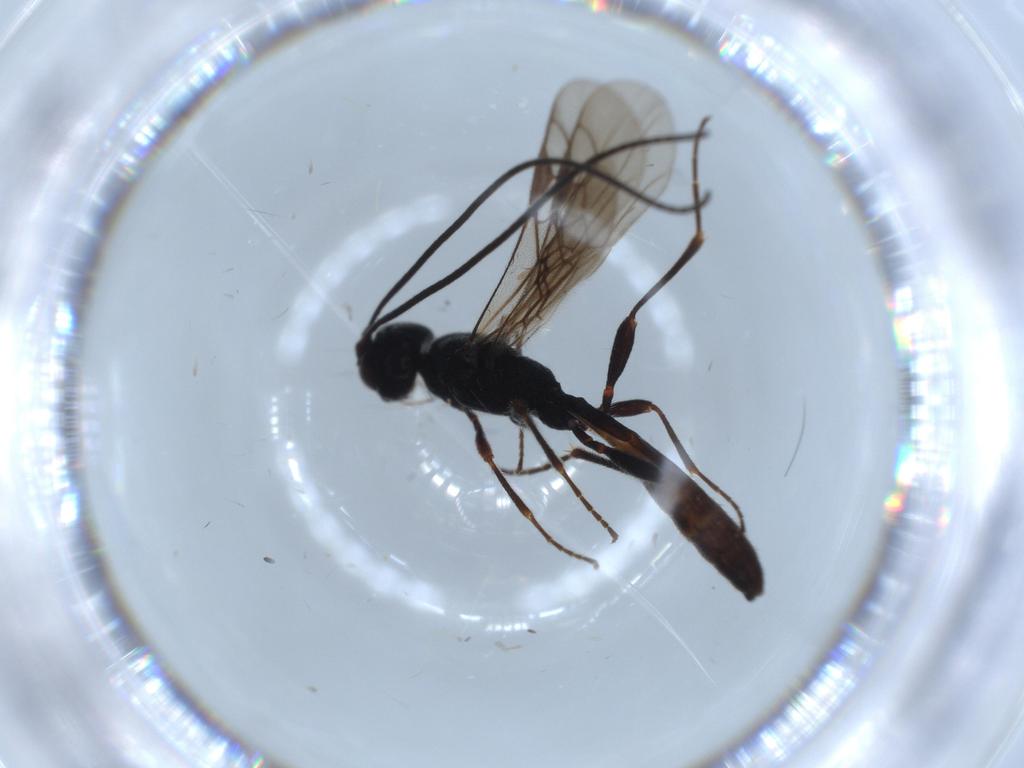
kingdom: Animalia
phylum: Arthropoda
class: Insecta
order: Hymenoptera
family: Braconidae
